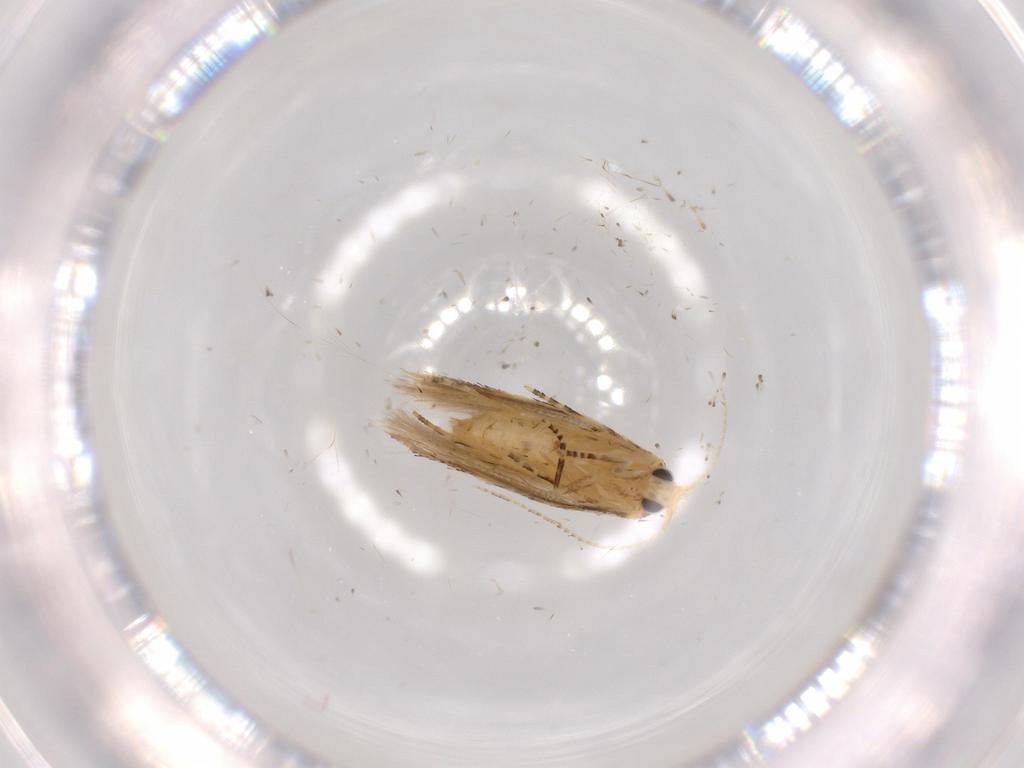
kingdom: Animalia
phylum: Arthropoda
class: Insecta
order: Lepidoptera
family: Bucculatricidae
